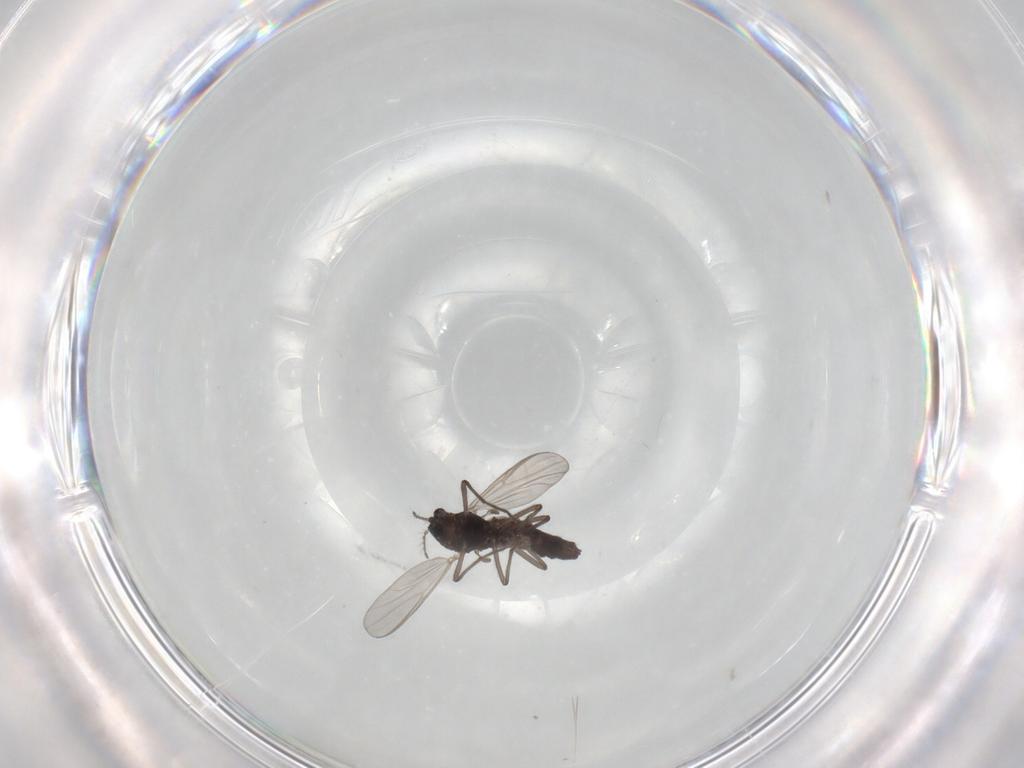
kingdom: Animalia
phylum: Arthropoda
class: Insecta
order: Diptera
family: Chironomidae
